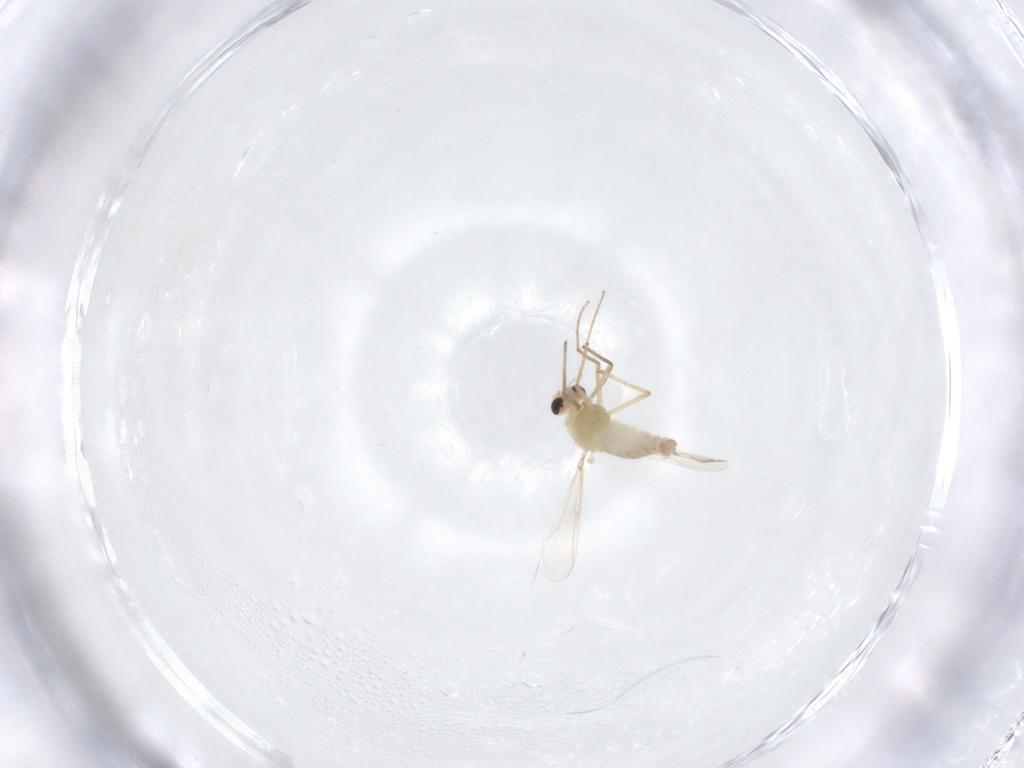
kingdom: Animalia
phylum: Arthropoda
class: Insecta
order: Diptera
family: Chironomidae
